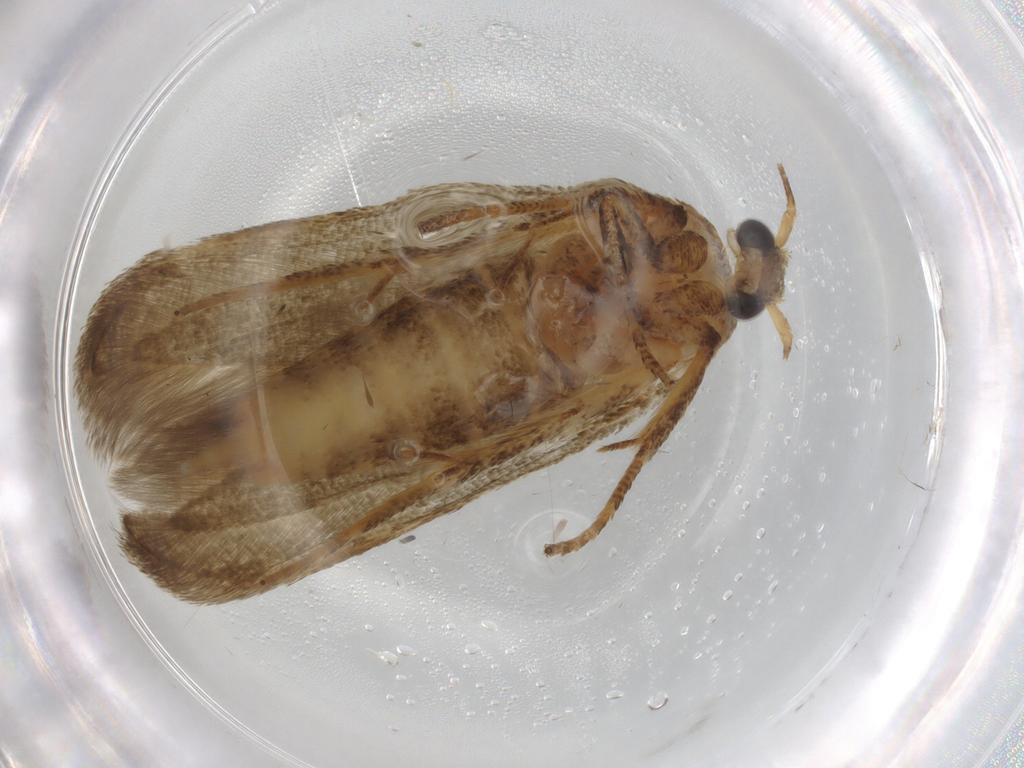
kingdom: Animalia
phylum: Arthropoda
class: Insecta
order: Lepidoptera
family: Blastobasidae
